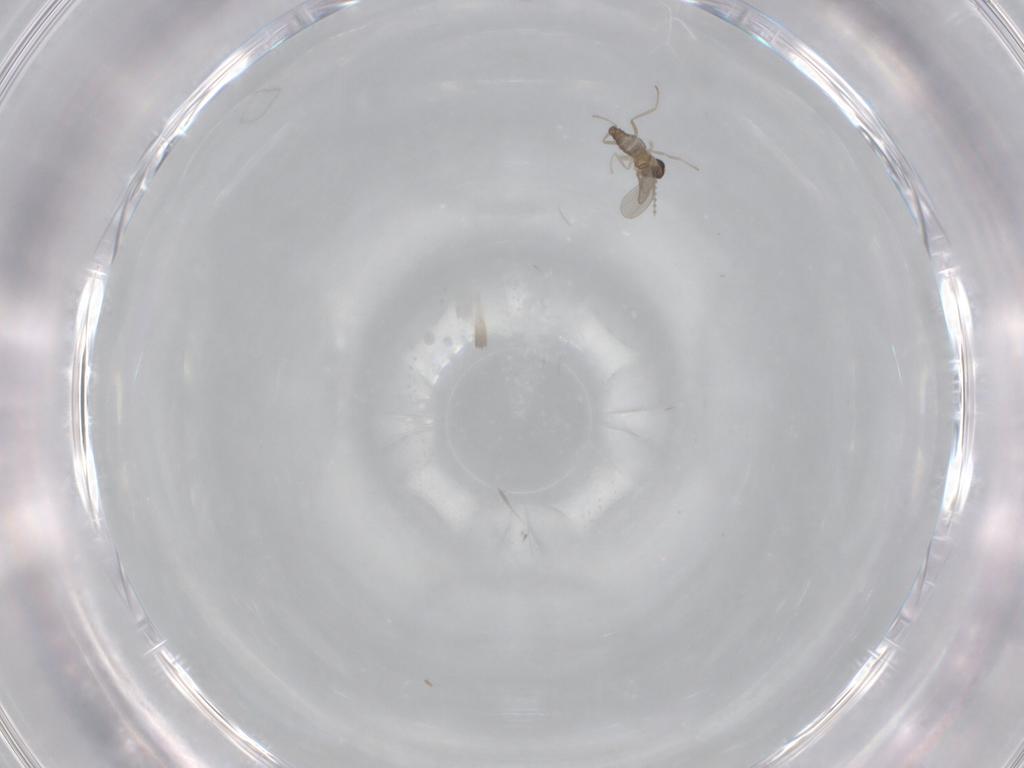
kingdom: Animalia
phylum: Arthropoda
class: Insecta
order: Diptera
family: Cecidomyiidae
